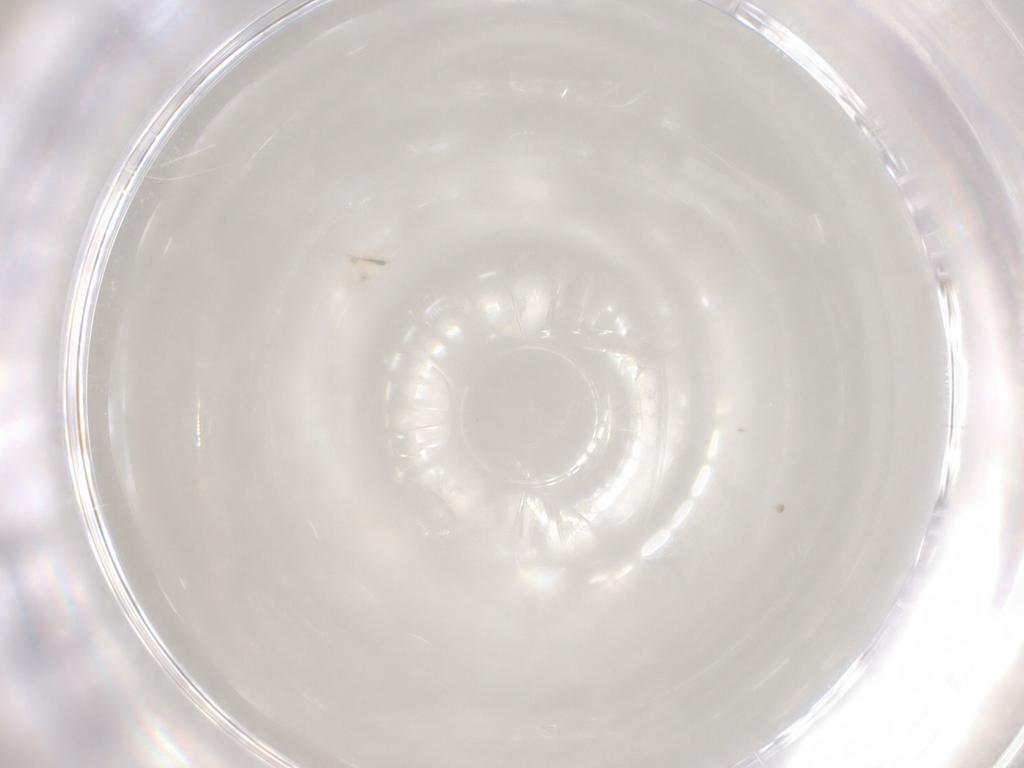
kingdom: Animalia
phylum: Arthropoda
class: Arachnida
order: Trombidiformes
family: Anystidae
